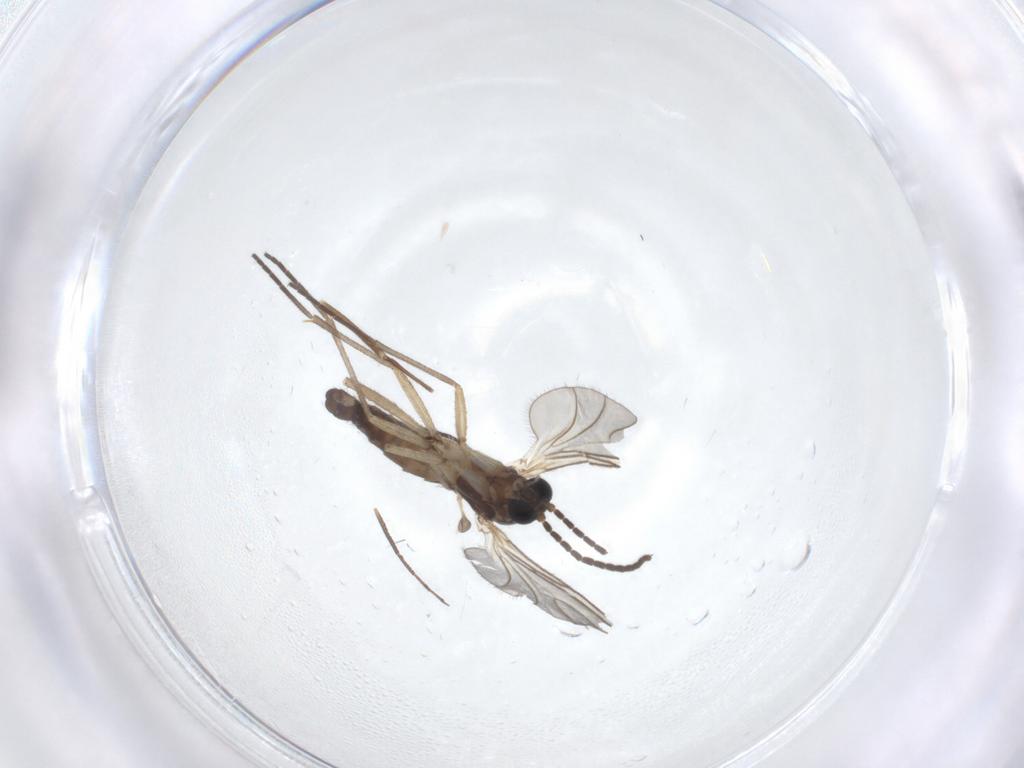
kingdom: Animalia
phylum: Arthropoda
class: Insecta
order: Diptera
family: Sciaridae
